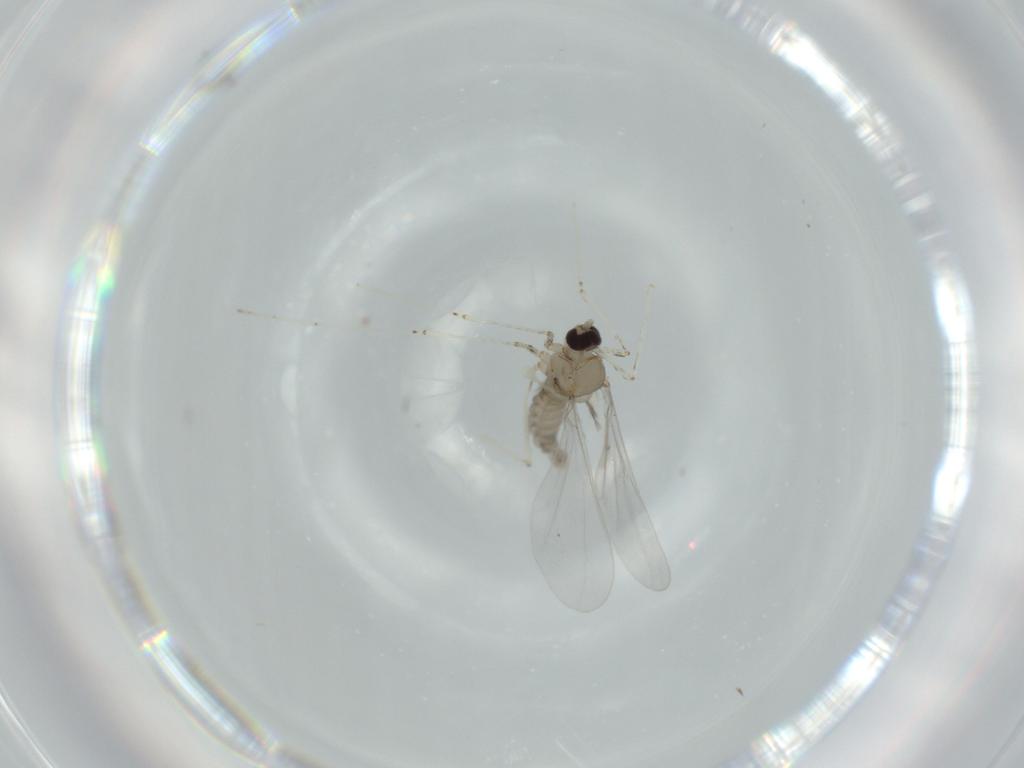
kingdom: Animalia
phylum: Arthropoda
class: Insecta
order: Diptera
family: Cecidomyiidae
